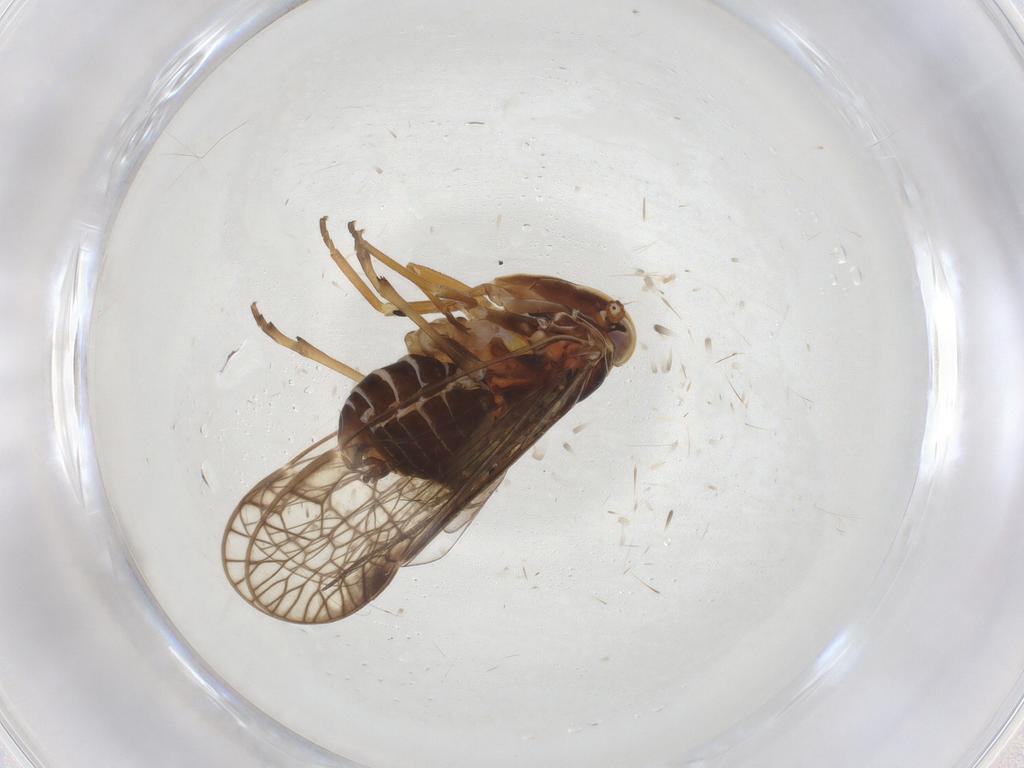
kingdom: Animalia
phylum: Arthropoda
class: Insecta
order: Hemiptera
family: Kinnaridae
